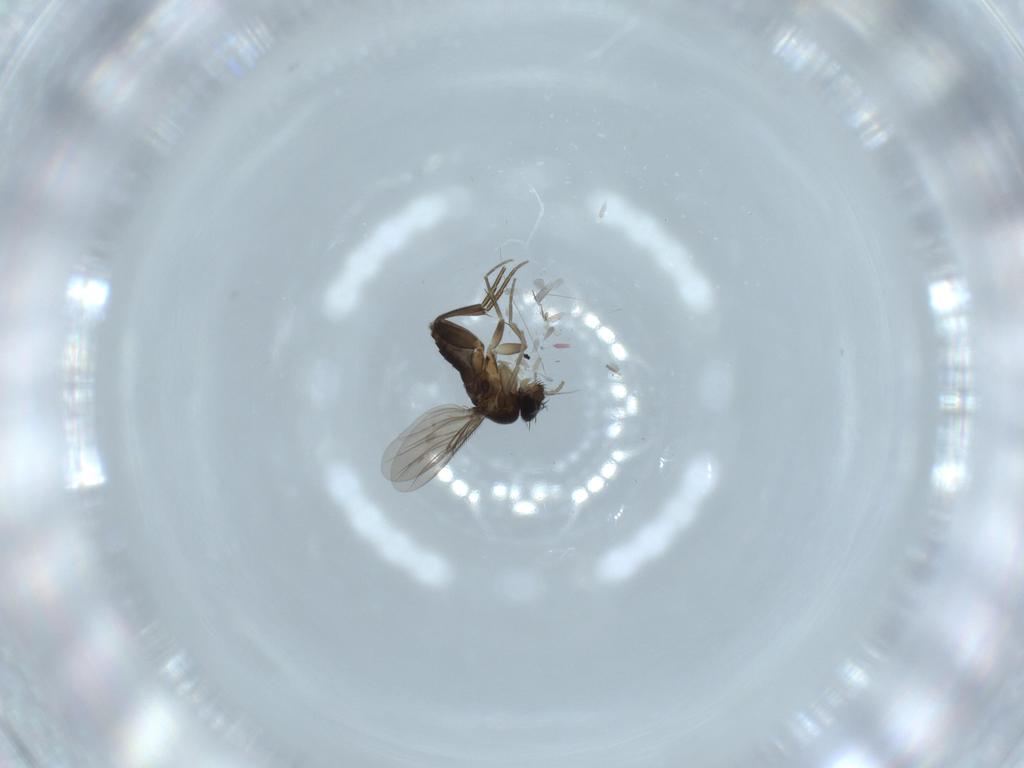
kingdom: Animalia
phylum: Arthropoda
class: Insecta
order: Diptera
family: Phoridae
